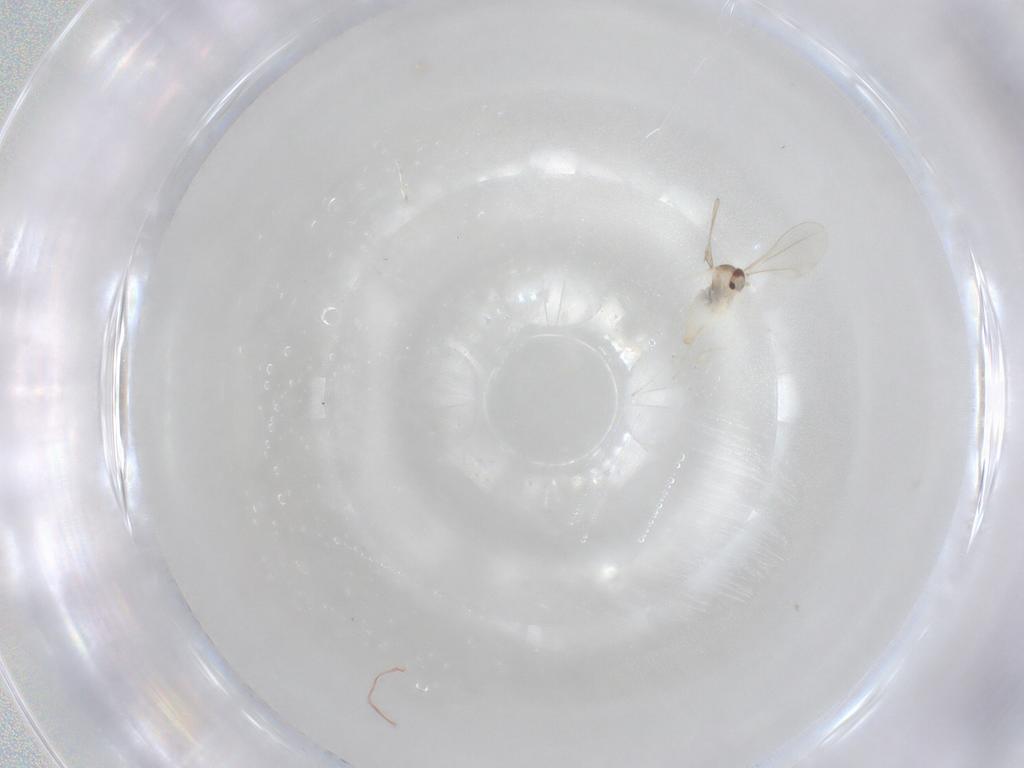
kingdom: Animalia
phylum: Arthropoda
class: Insecta
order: Diptera
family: Cecidomyiidae
